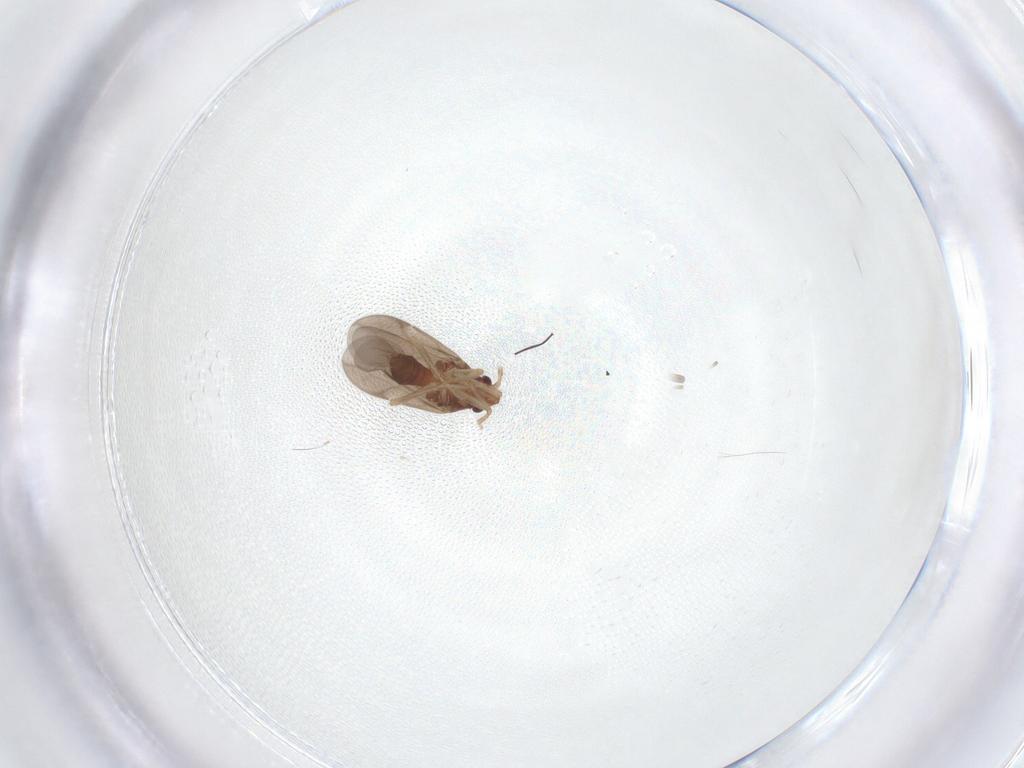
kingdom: Animalia
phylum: Arthropoda
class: Insecta
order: Hemiptera
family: Ceratocombidae
